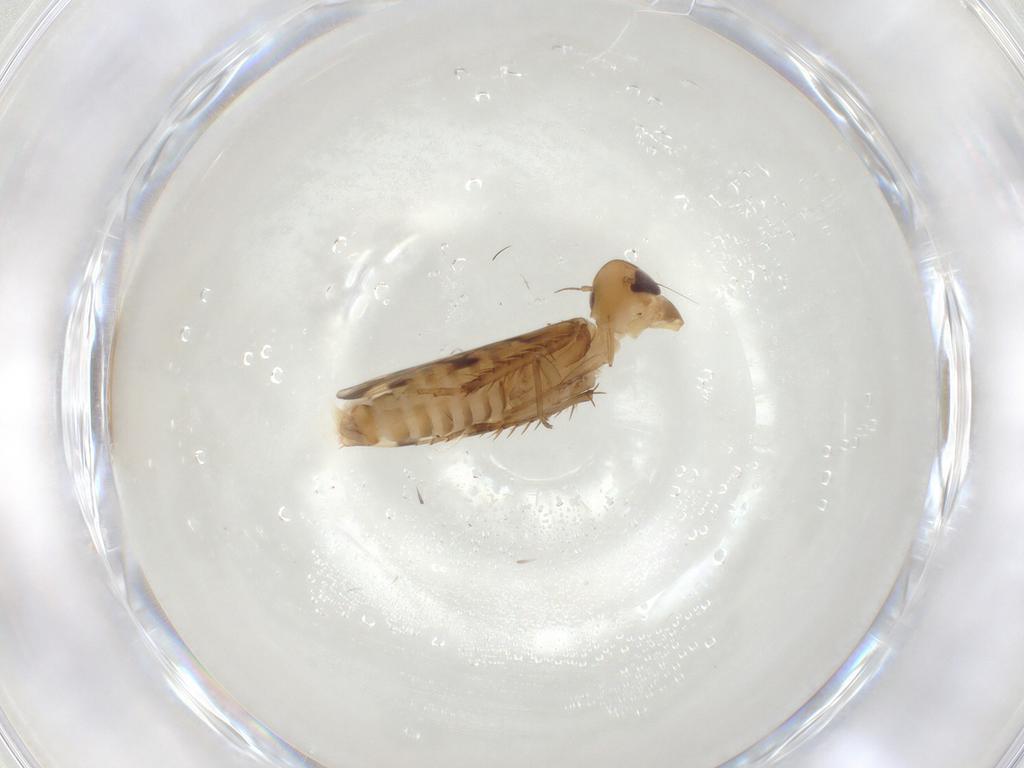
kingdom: Animalia
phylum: Arthropoda
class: Insecta
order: Hemiptera
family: Cicadellidae
